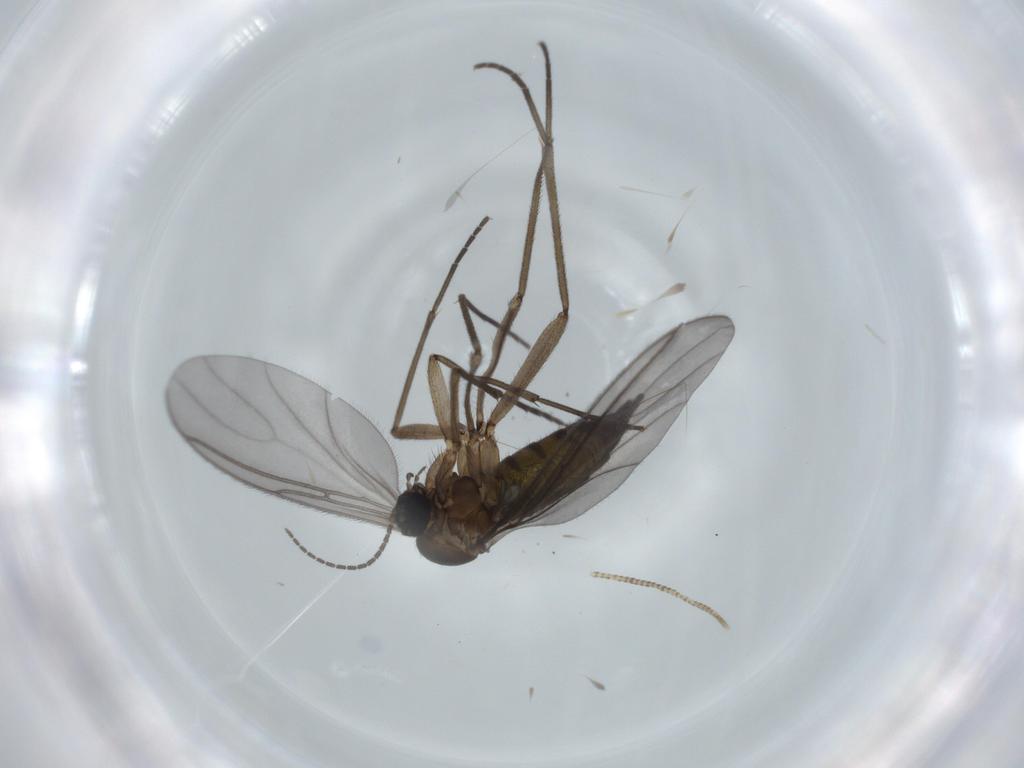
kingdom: Animalia
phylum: Arthropoda
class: Insecta
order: Diptera
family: Sciaridae
